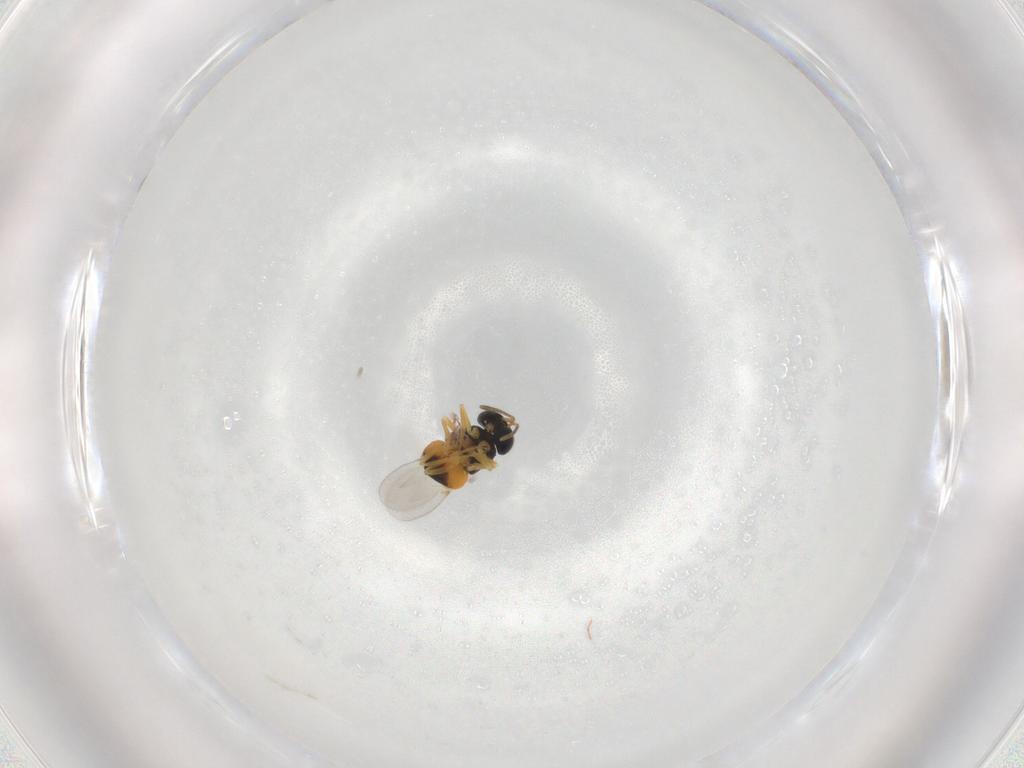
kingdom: Animalia
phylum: Arthropoda
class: Insecta
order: Hymenoptera
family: Encyrtidae
